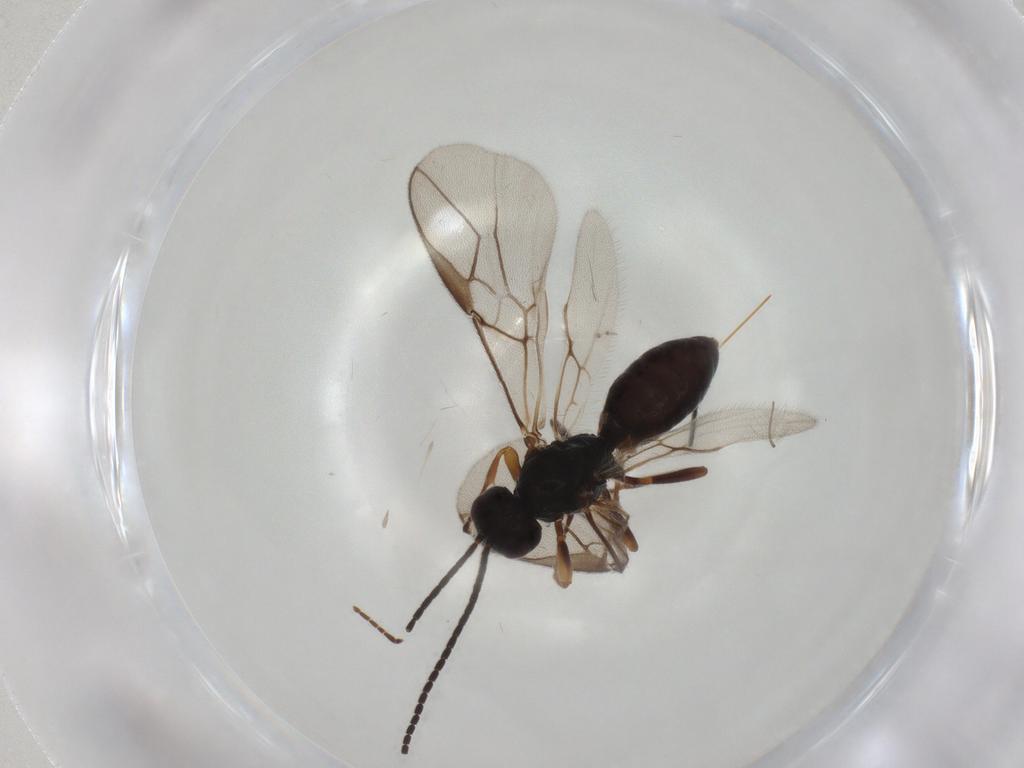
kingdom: Animalia
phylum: Arthropoda
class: Insecta
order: Hymenoptera
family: Braconidae
